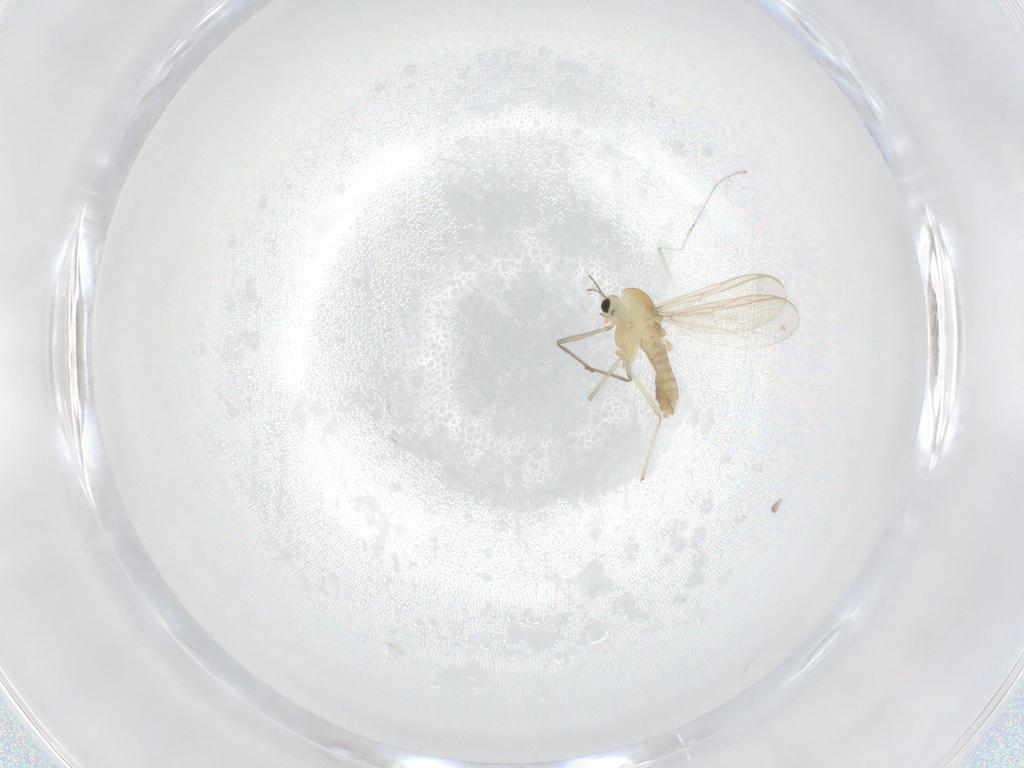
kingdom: Animalia
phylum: Arthropoda
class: Insecta
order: Diptera
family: Chironomidae
